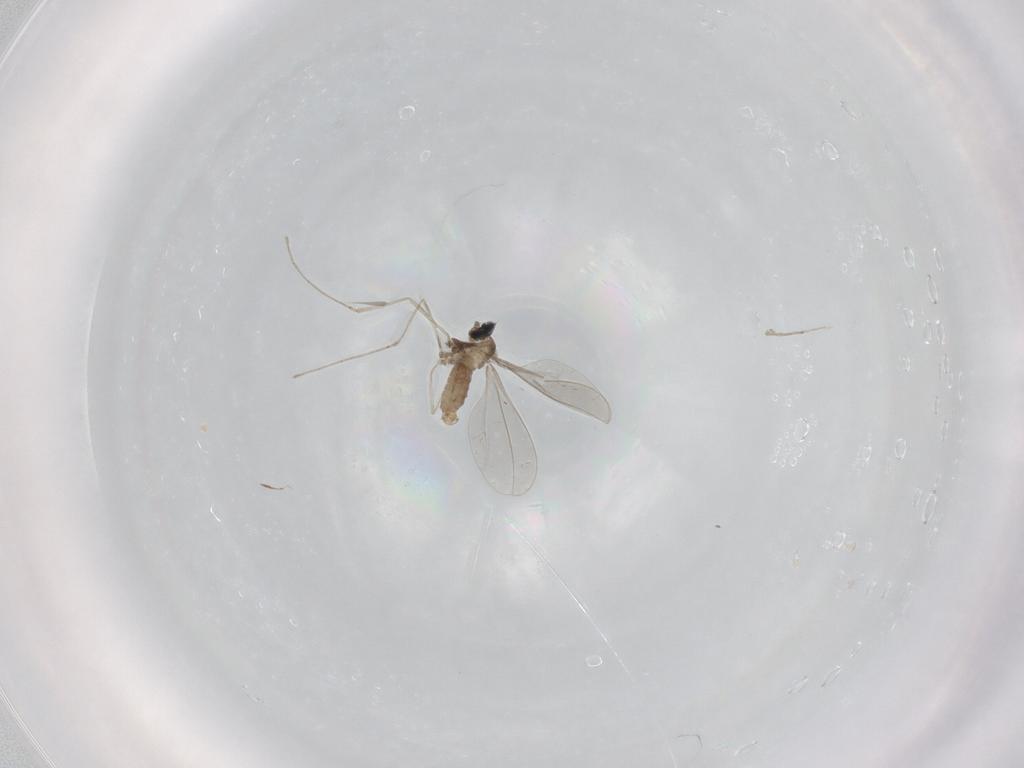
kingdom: Animalia
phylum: Arthropoda
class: Insecta
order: Diptera
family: Cecidomyiidae
